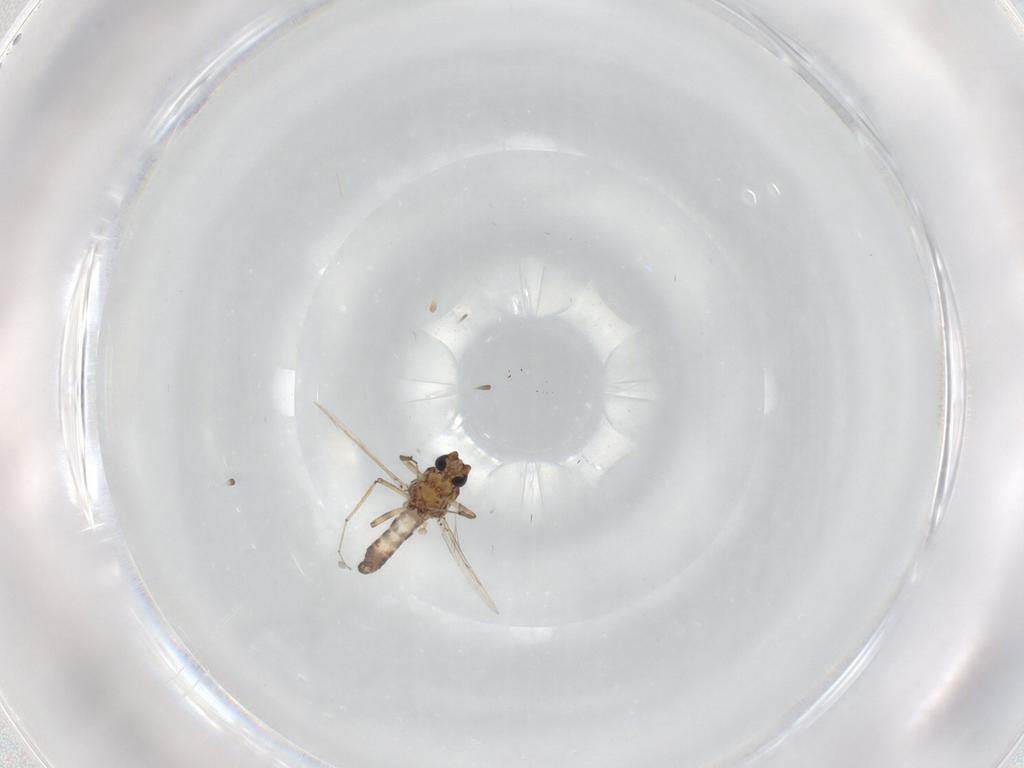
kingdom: Animalia
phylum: Arthropoda
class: Insecta
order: Diptera
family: Ceratopogonidae
